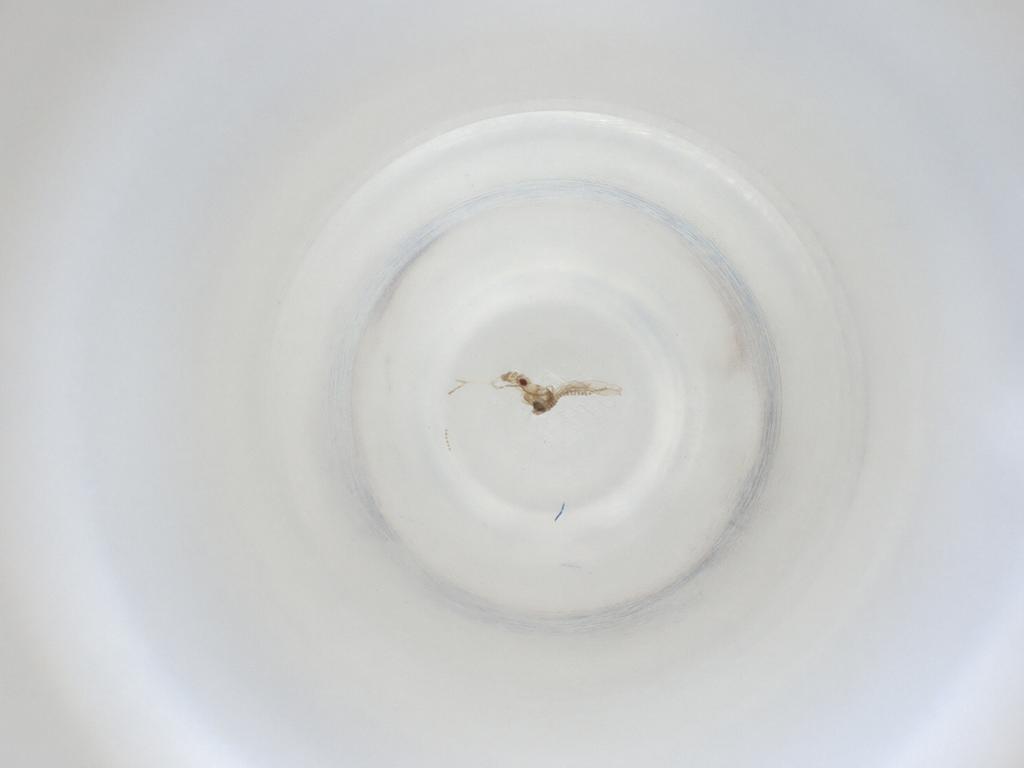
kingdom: Animalia
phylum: Arthropoda
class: Insecta
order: Diptera
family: Cecidomyiidae
